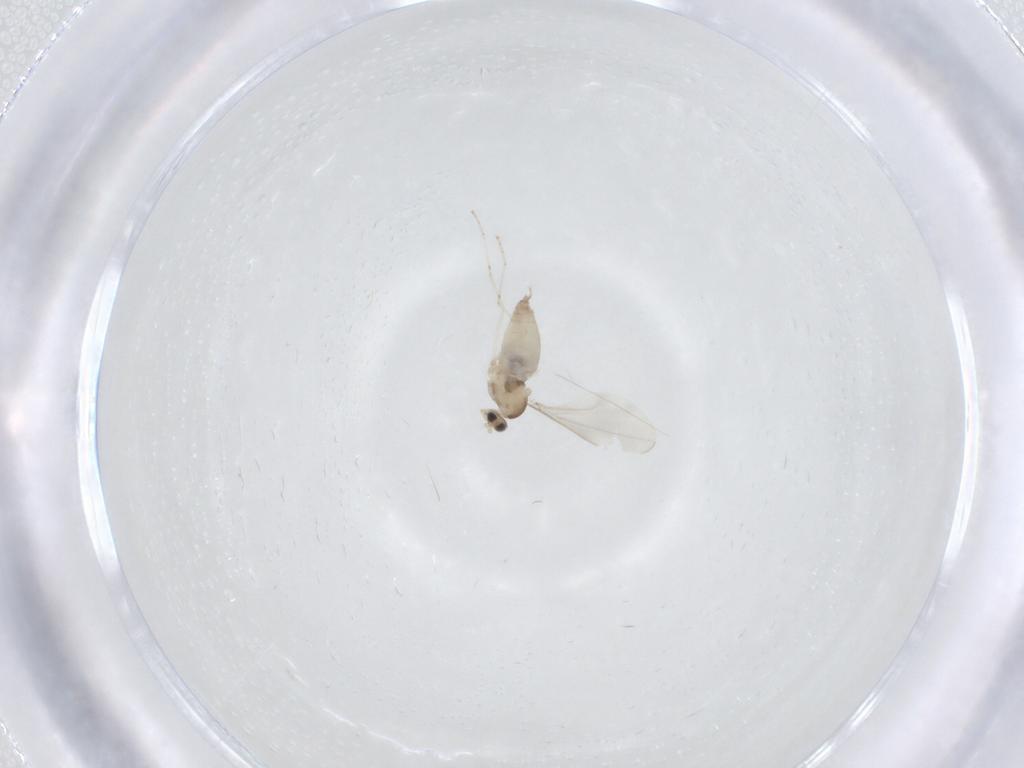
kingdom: Animalia
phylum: Arthropoda
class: Insecta
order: Diptera
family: Cecidomyiidae
